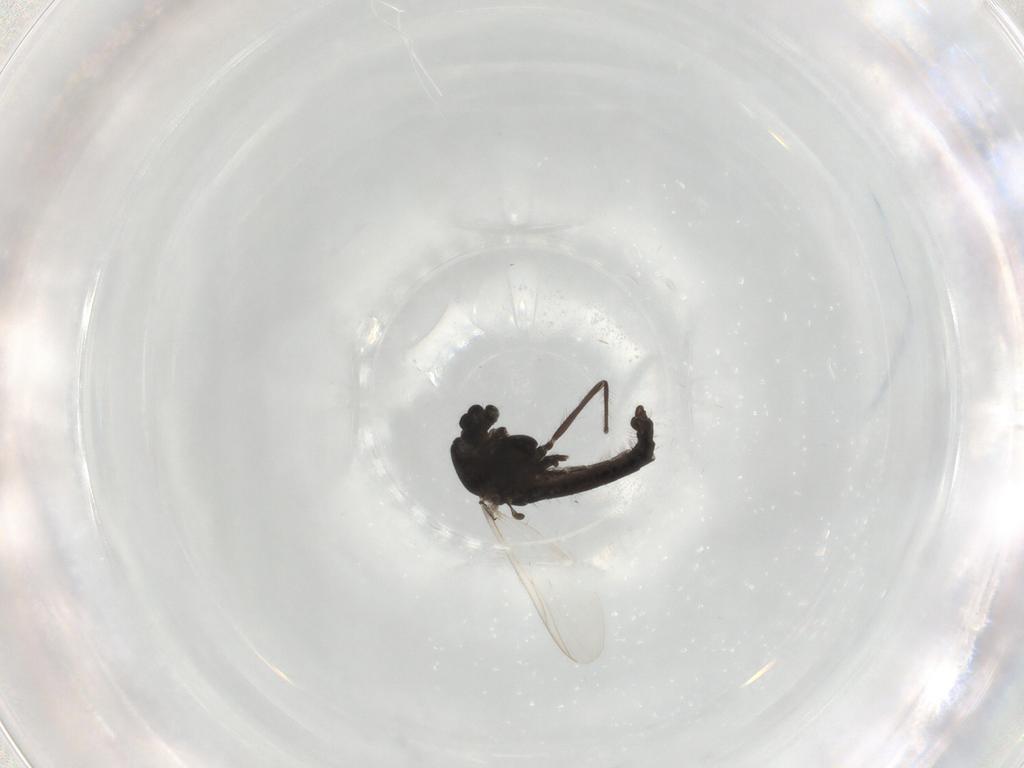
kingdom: Animalia
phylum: Arthropoda
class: Insecta
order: Diptera
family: Chironomidae
